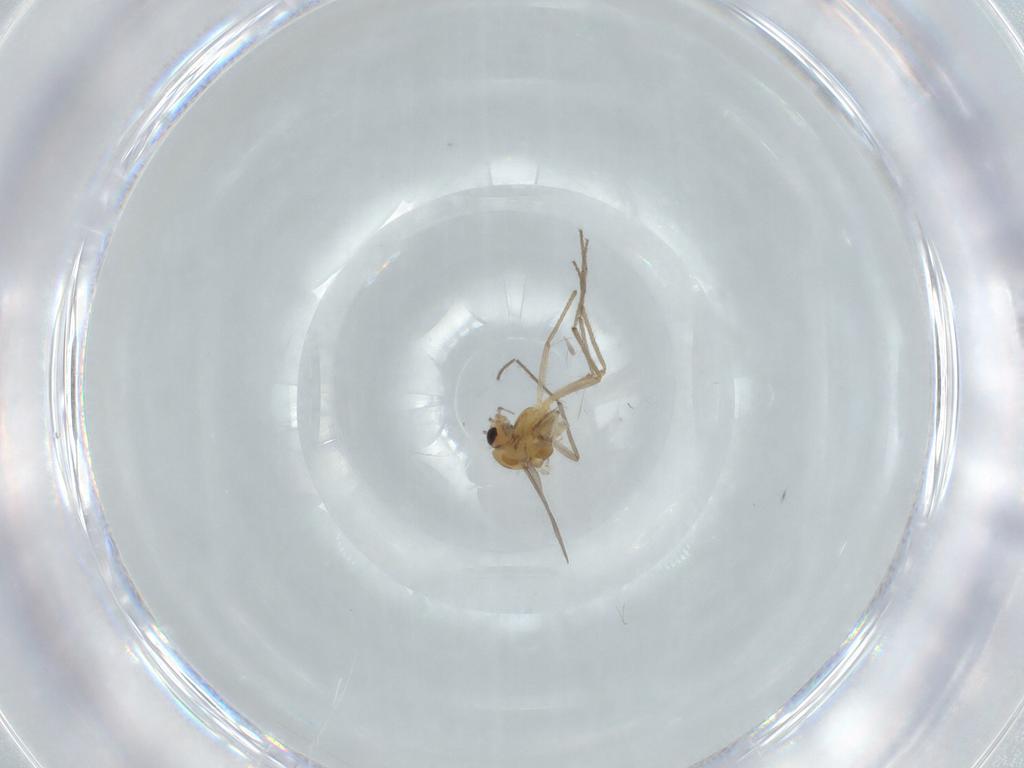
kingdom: Animalia
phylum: Arthropoda
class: Insecta
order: Diptera
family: Chironomidae
